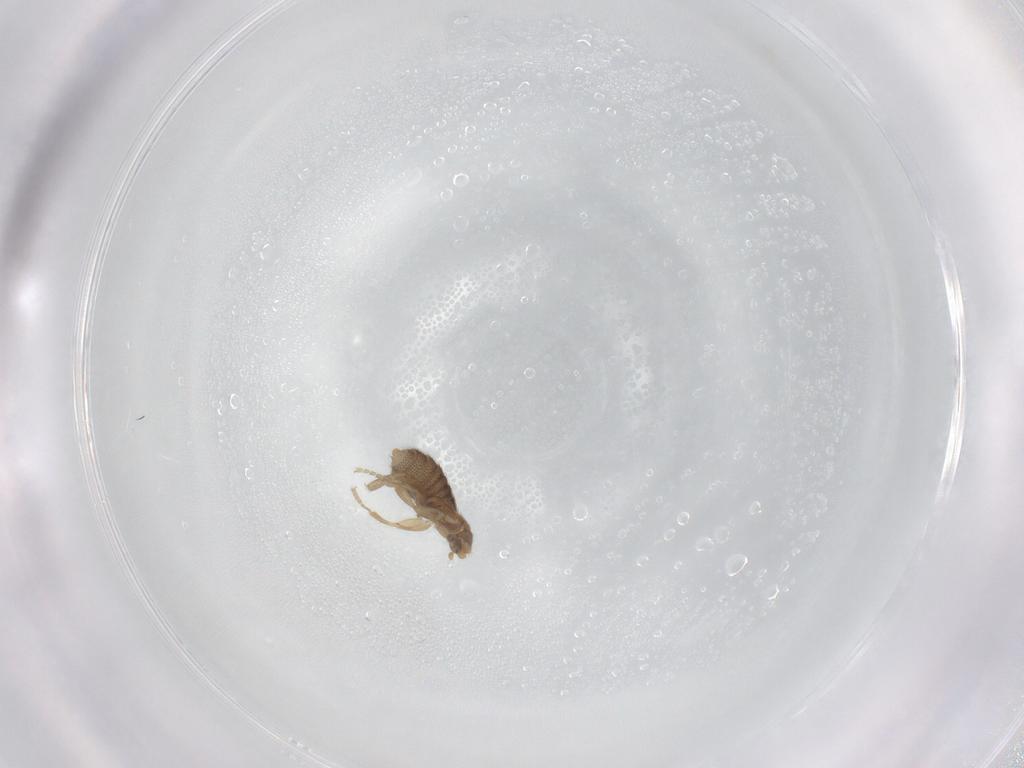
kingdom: Animalia
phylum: Arthropoda
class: Insecta
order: Diptera
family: Phoridae
